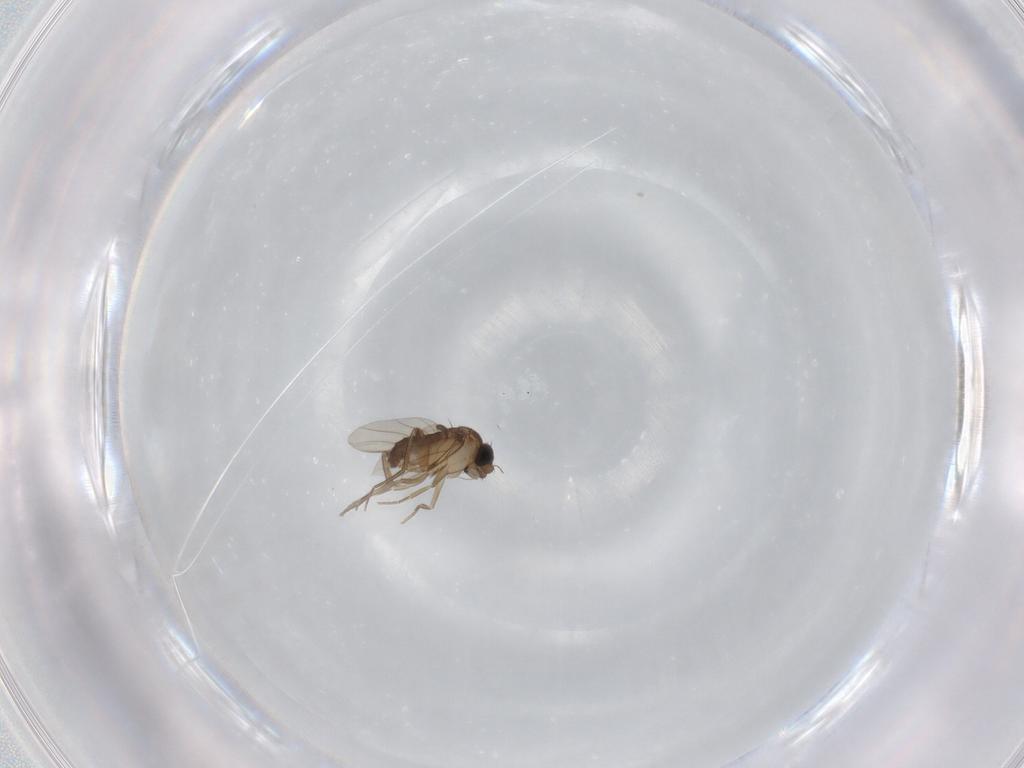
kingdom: Animalia
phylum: Arthropoda
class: Insecta
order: Diptera
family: Phoridae
